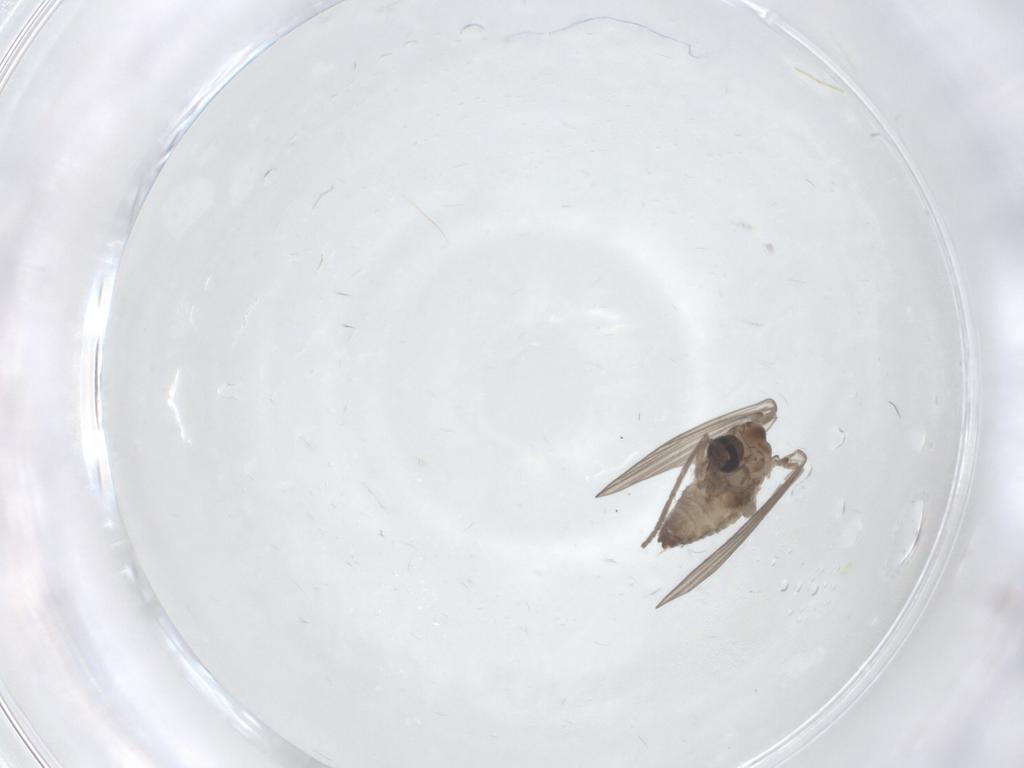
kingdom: Animalia
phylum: Arthropoda
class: Insecta
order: Diptera
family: Psychodidae
